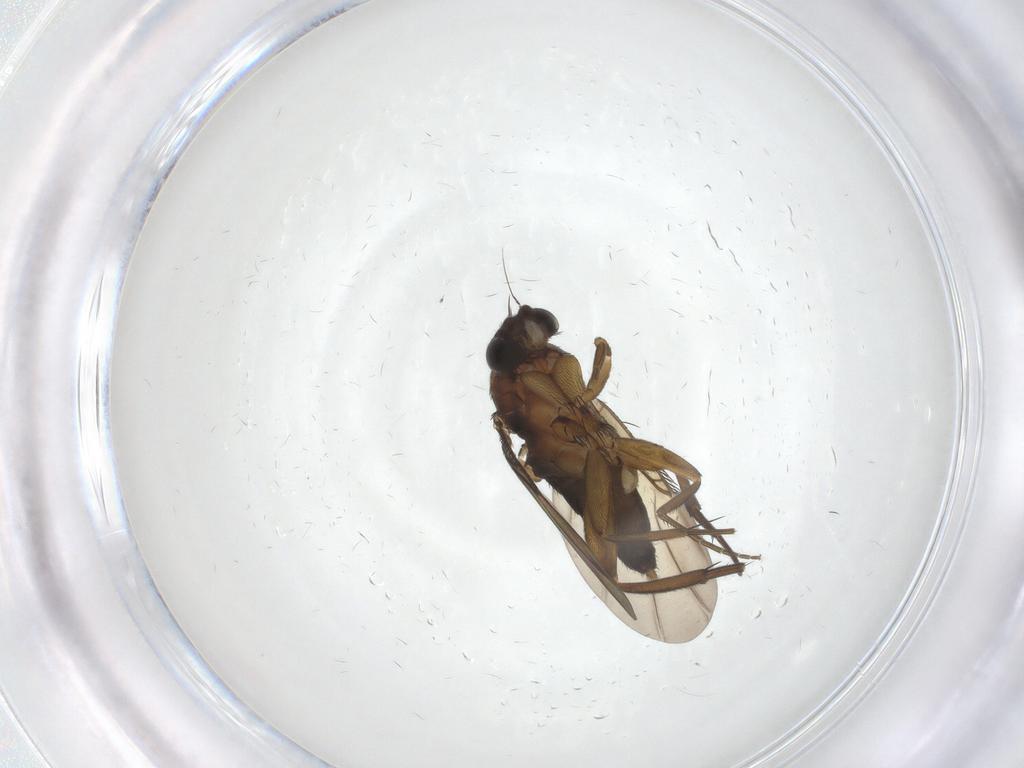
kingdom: Animalia
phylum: Arthropoda
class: Insecta
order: Diptera
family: Phoridae
